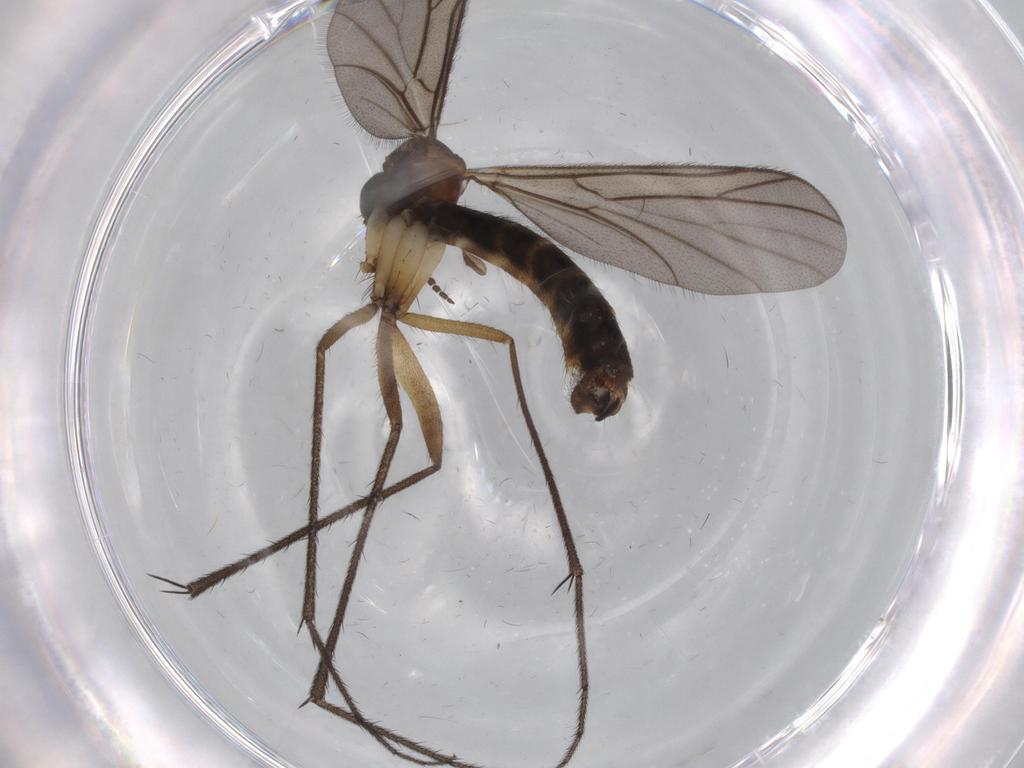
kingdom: Animalia
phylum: Arthropoda
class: Insecta
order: Diptera
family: Ditomyiidae
